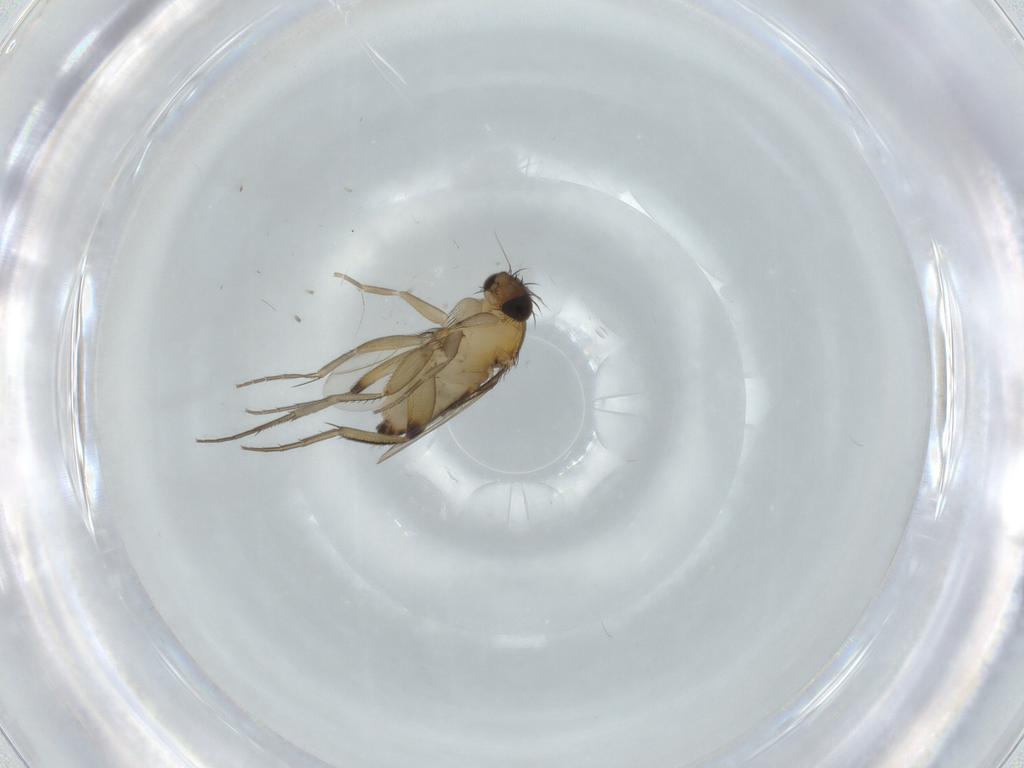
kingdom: Animalia
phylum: Arthropoda
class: Insecta
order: Diptera
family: Phoridae
